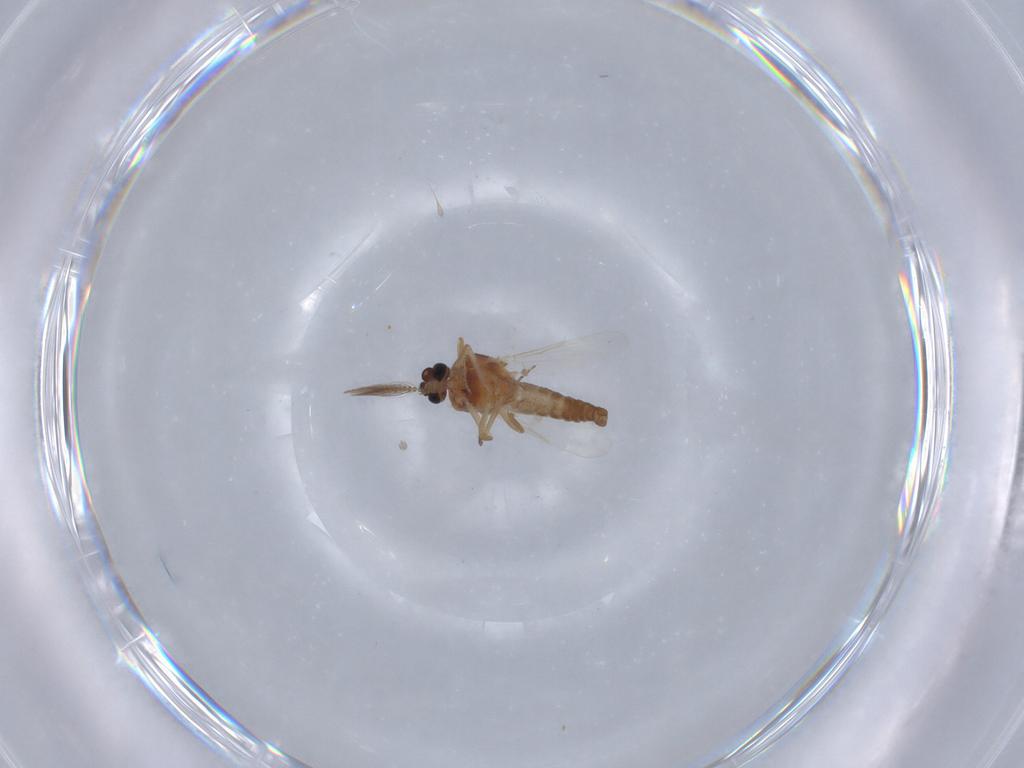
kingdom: Animalia
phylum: Arthropoda
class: Insecta
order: Diptera
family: Ceratopogonidae
